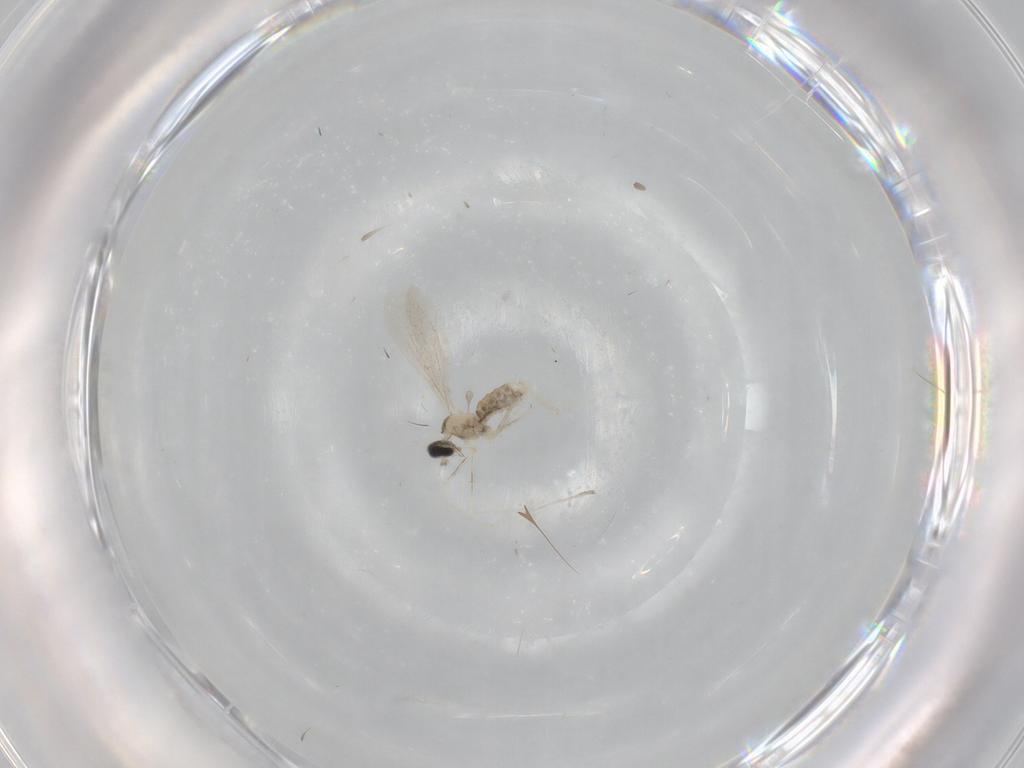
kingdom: Animalia
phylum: Arthropoda
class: Insecta
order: Diptera
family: Cecidomyiidae
